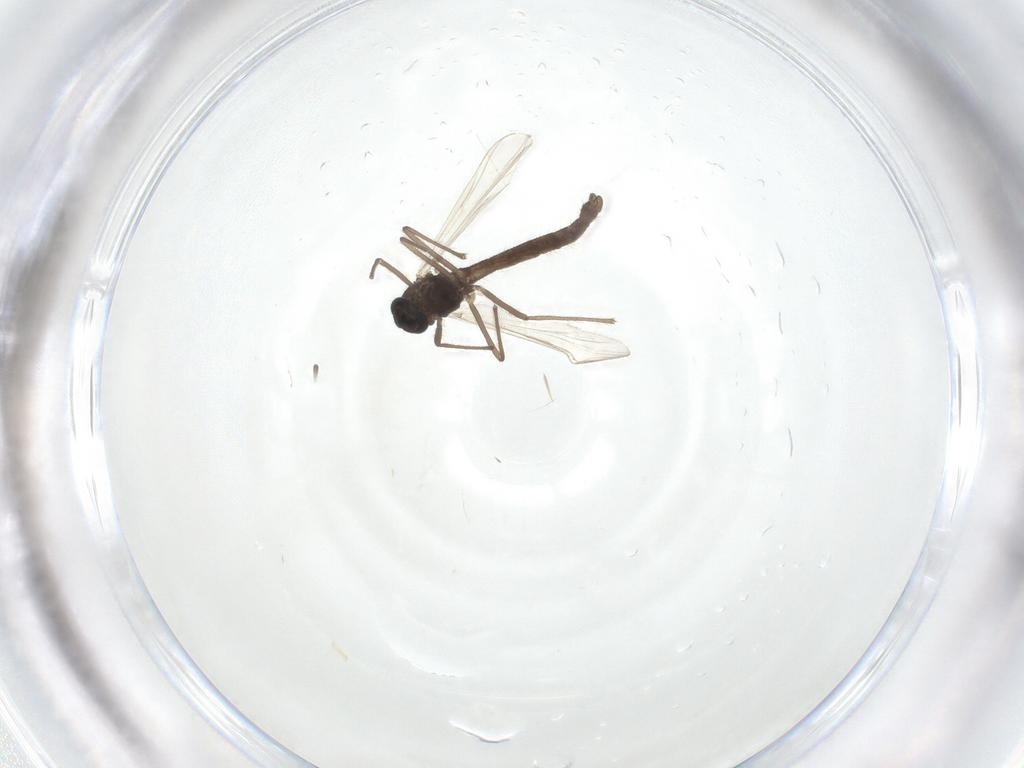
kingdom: Animalia
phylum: Arthropoda
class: Insecta
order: Diptera
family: Chironomidae
